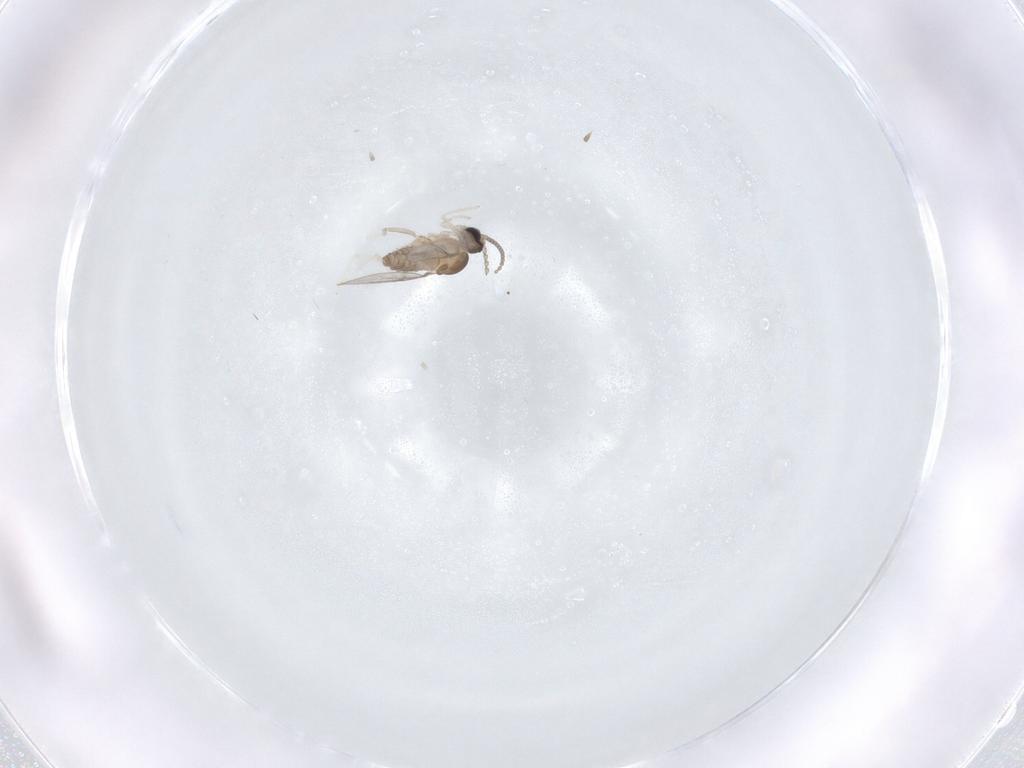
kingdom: Animalia
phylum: Arthropoda
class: Insecta
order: Diptera
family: Cecidomyiidae
